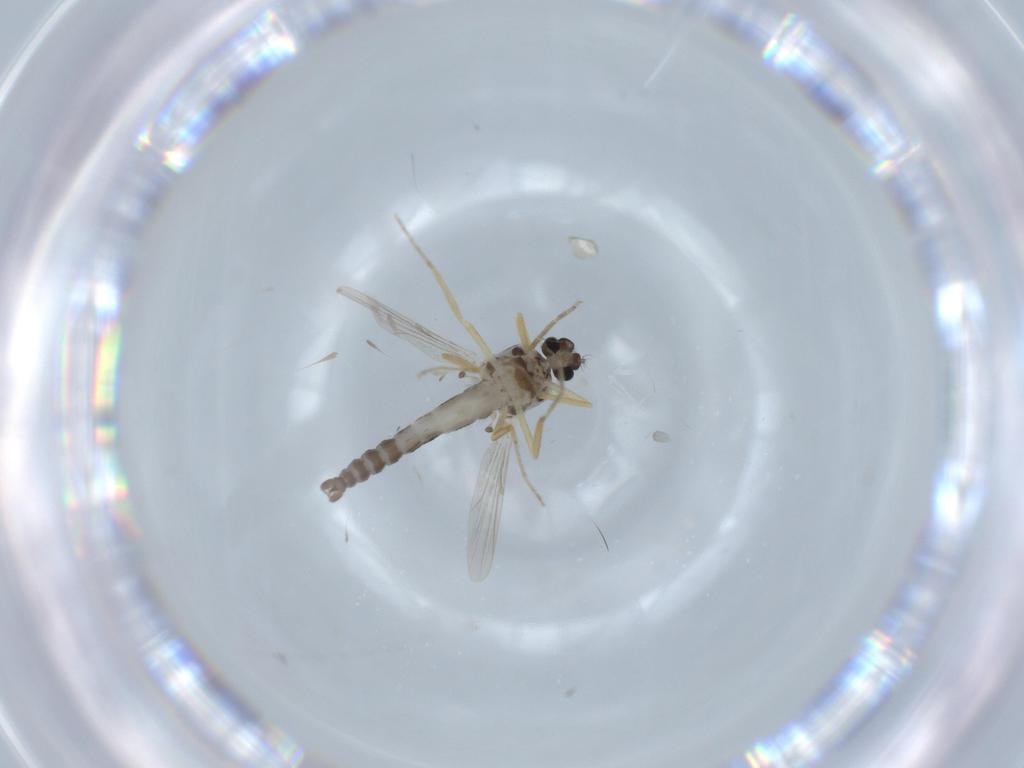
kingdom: Animalia
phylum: Arthropoda
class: Insecta
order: Diptera
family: Ceratopogonidae
